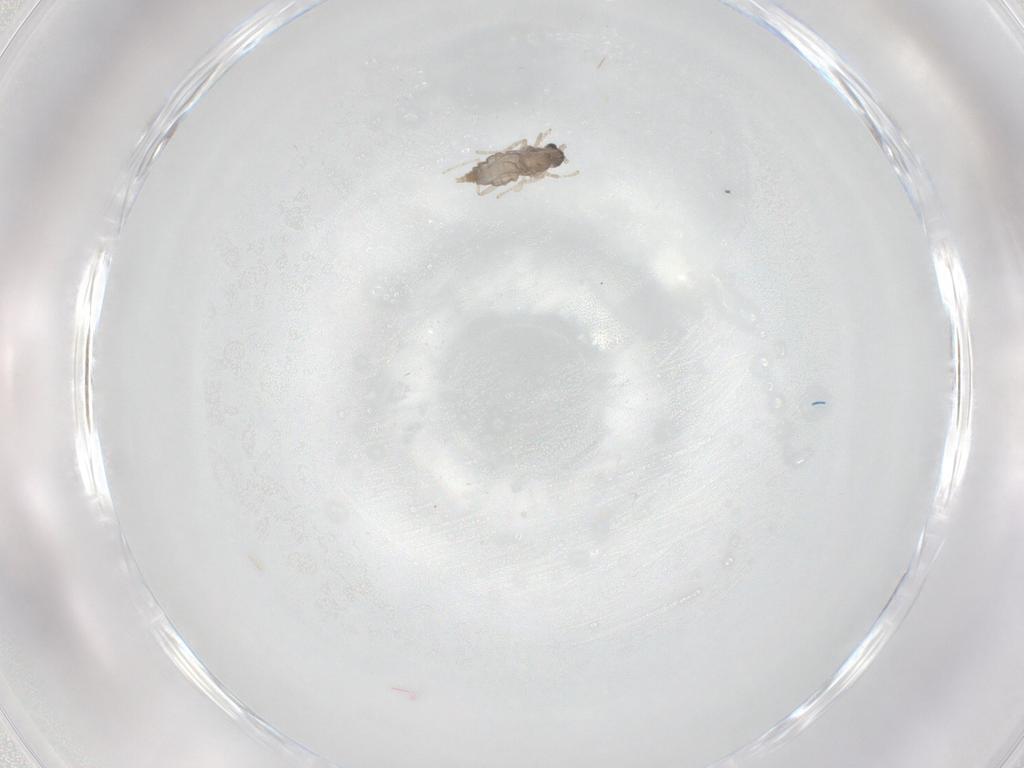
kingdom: Animalia
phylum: Arthropoda
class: Insecta
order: Diptera
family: Cecidomyiidae
